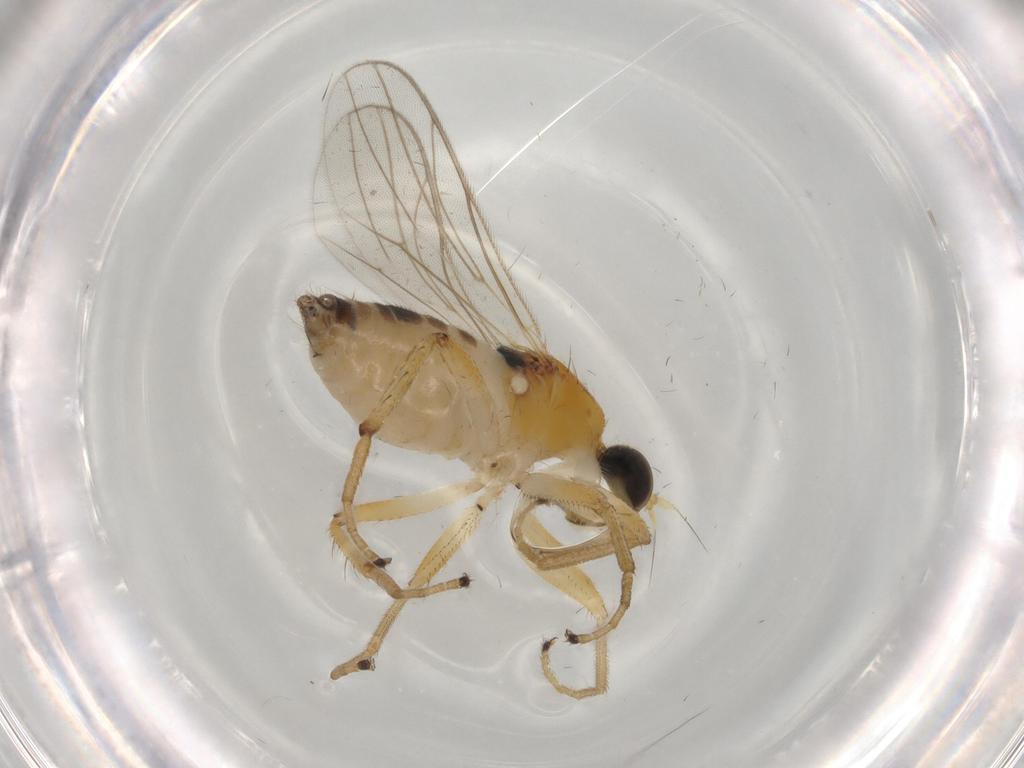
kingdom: Animalia
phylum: Arthropoda
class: Insecta
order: Diptera
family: Hybotidae
